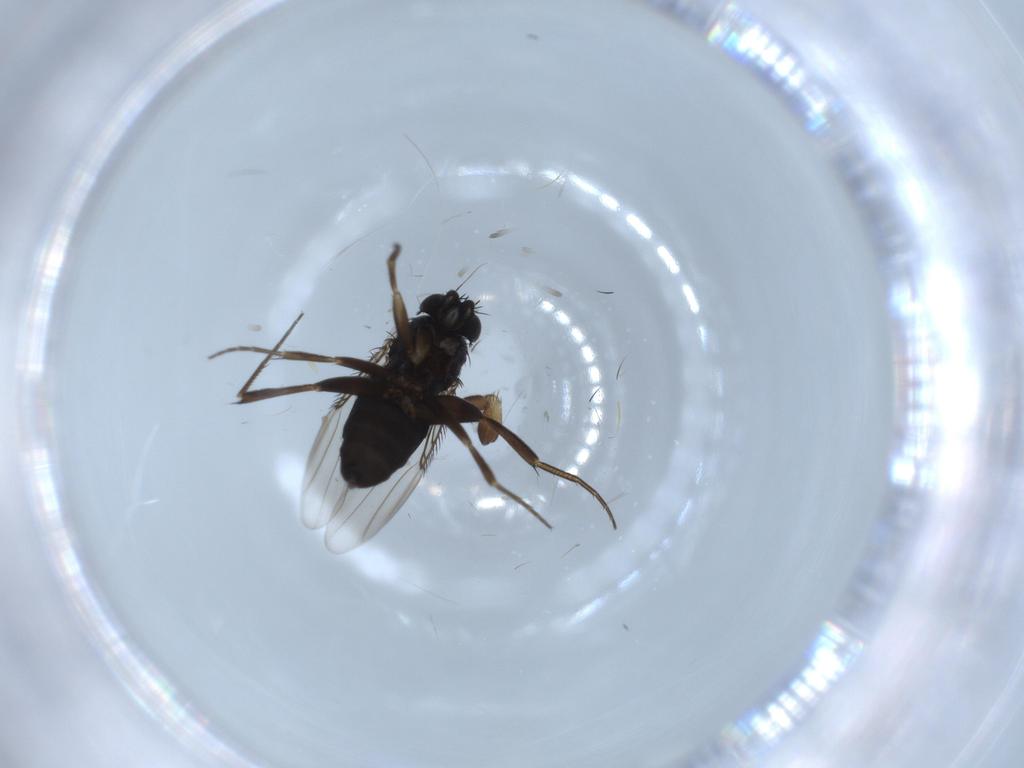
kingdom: Animalia
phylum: Arthropoda
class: Insecta
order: Diptera
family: Phoridae
